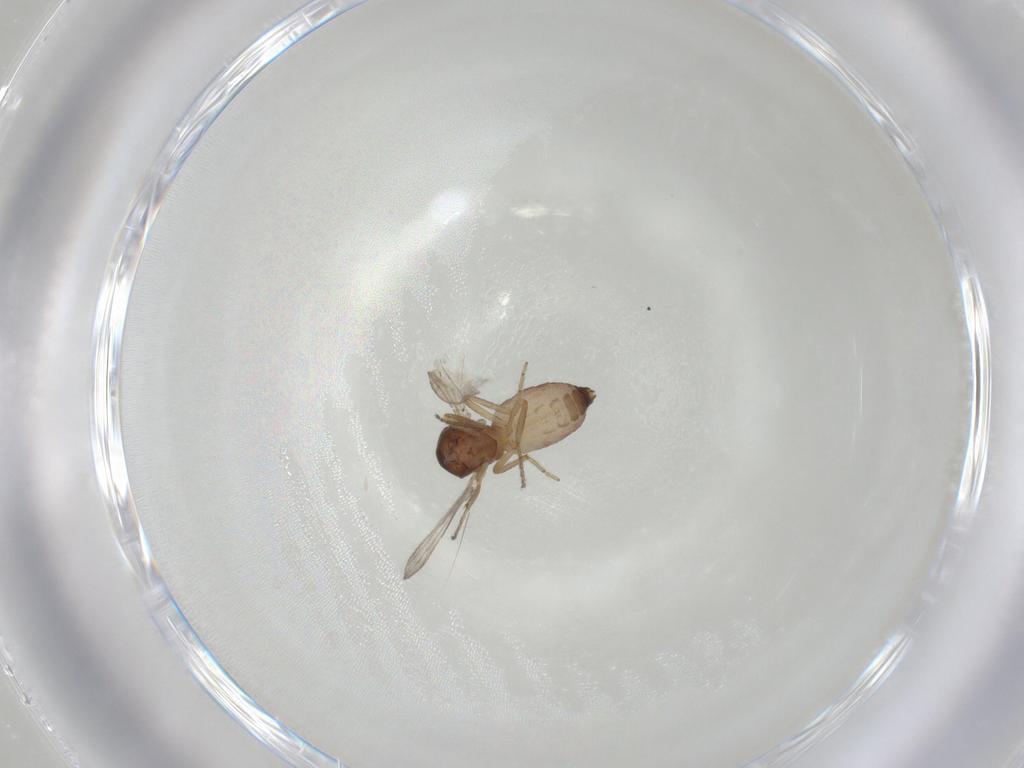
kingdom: Animalia
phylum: Arthropoda
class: Insecta
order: Diptera
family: Ceratopogonidae
